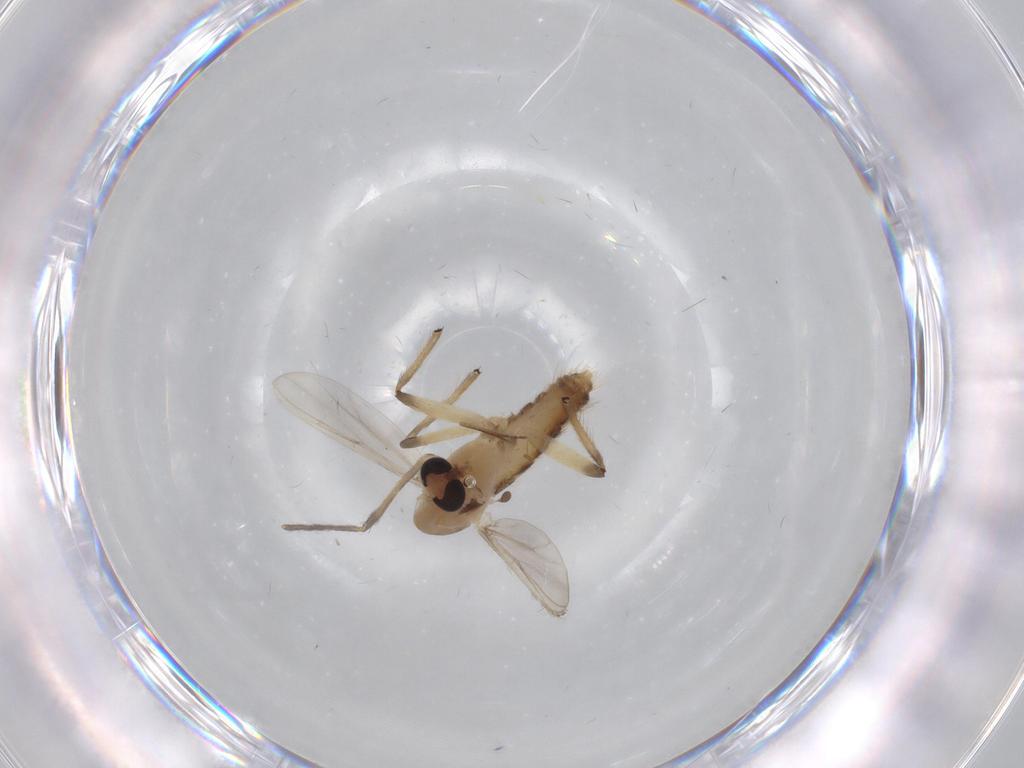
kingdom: Animalia
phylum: Arthropoda
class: Insecta
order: Diptera
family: Chironomidae
